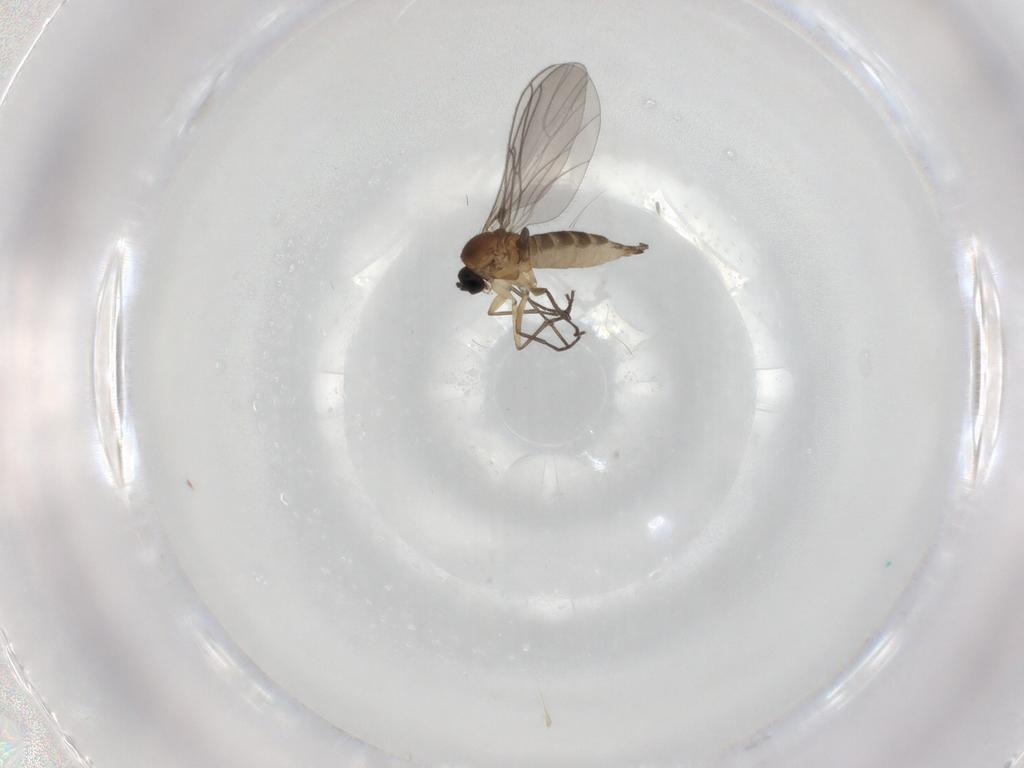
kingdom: Animalia
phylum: Arthropoda
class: Insecta
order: Diptera
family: Sciaridae
